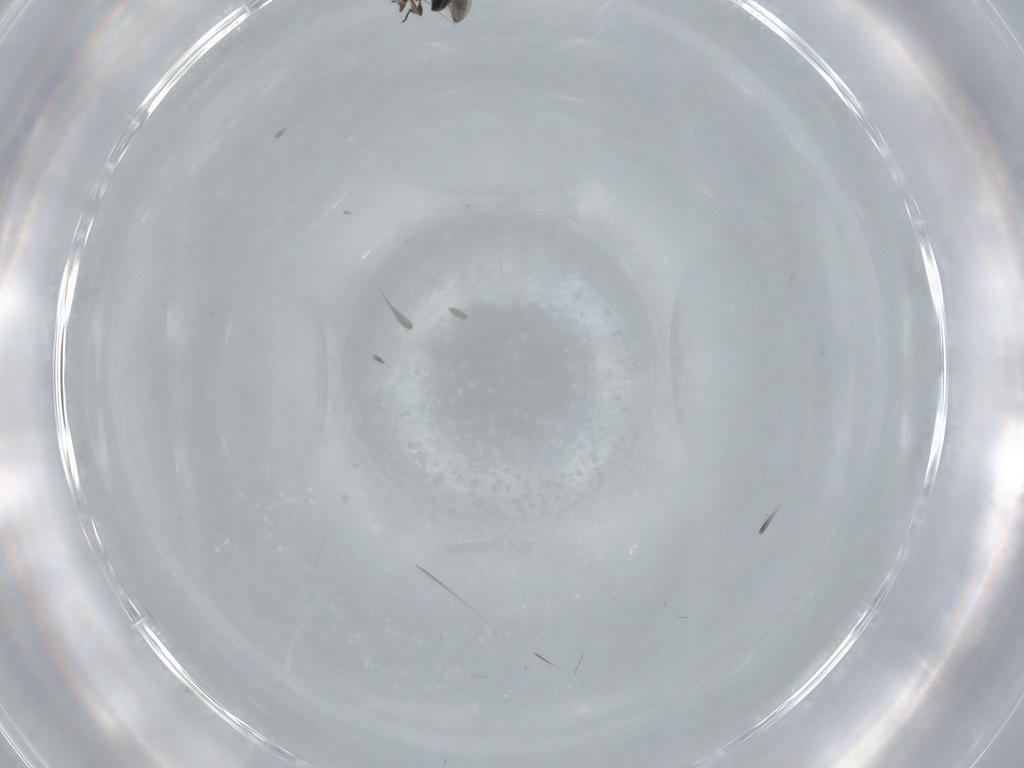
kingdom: Animalia
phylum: Arthropoda
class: Insecta
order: Hymenoptera
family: Platygastridae
